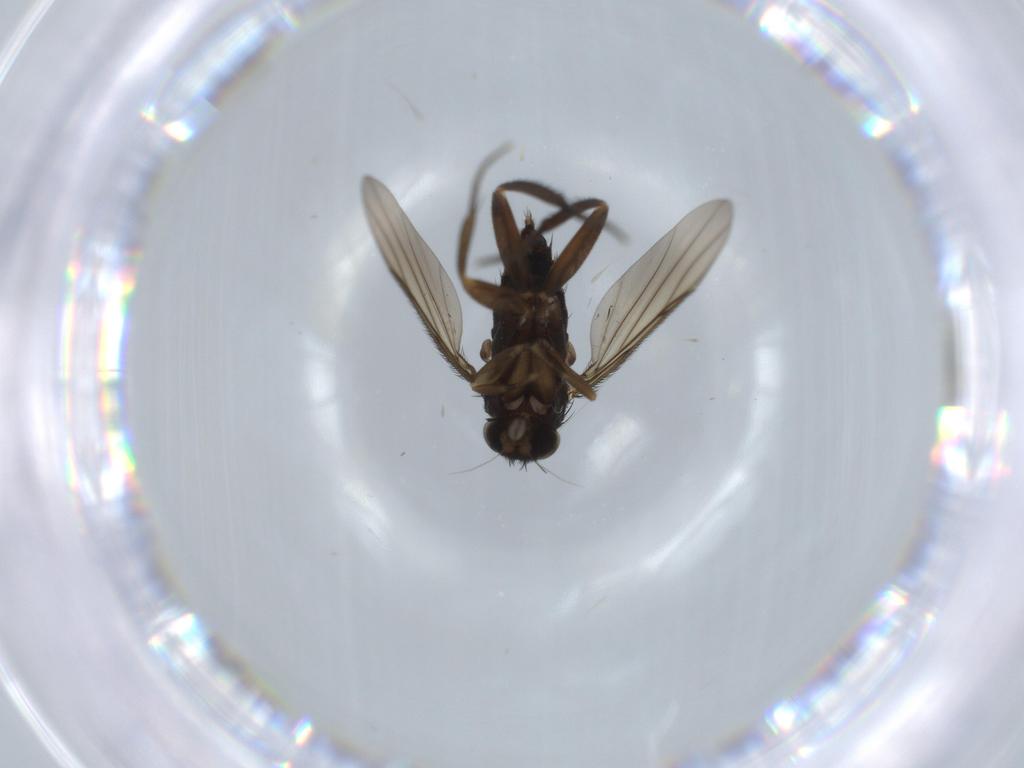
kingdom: Animalia
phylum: Arthropoda
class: Insecta
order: Diptera
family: Phoridae
